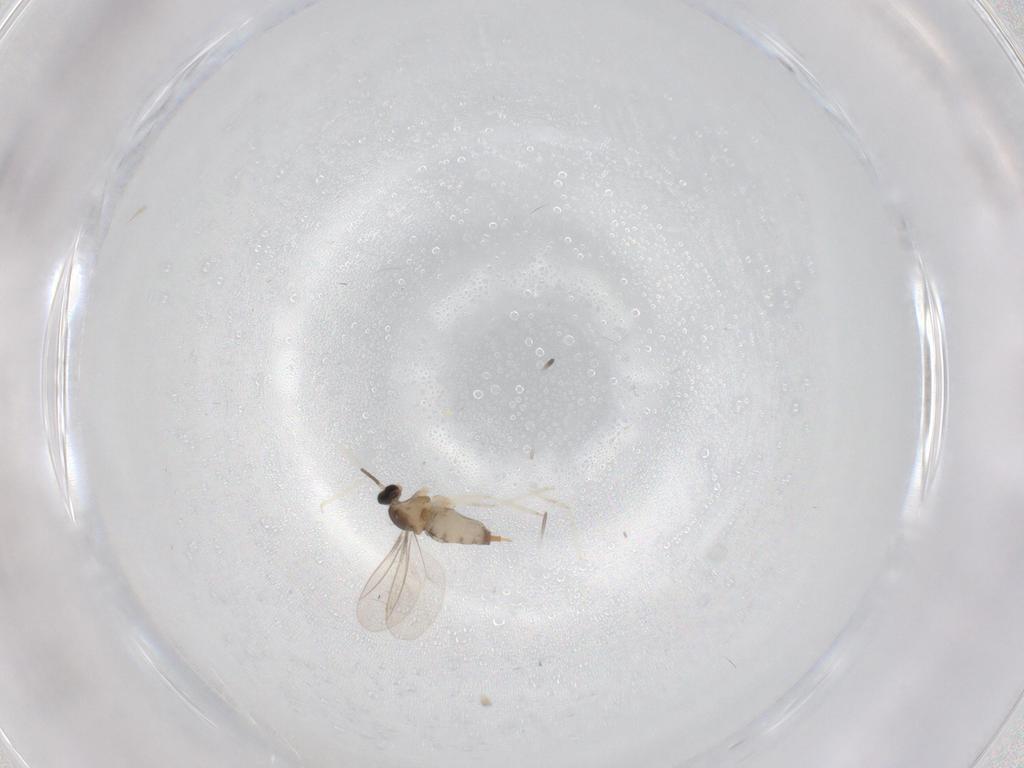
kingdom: Animalia
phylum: Arthropoda
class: Insecta
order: Diptera
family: Cecidomyiidae
